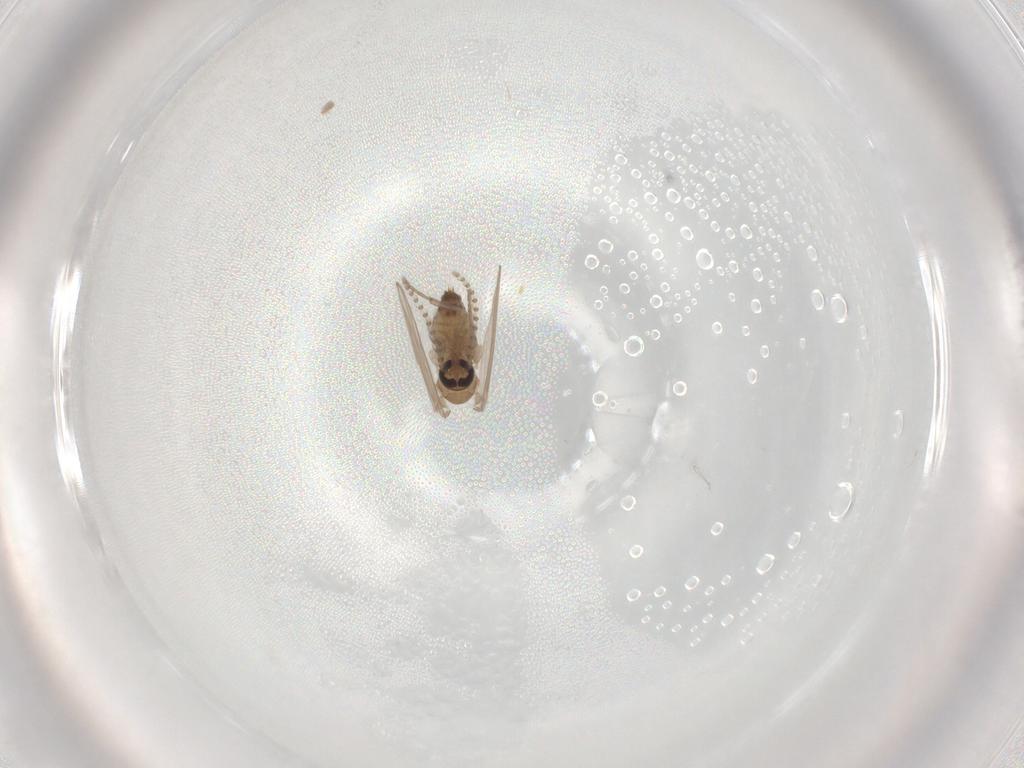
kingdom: Animalia
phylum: Arthropoda
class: Insecta
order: Diptera
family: Psychodidae
